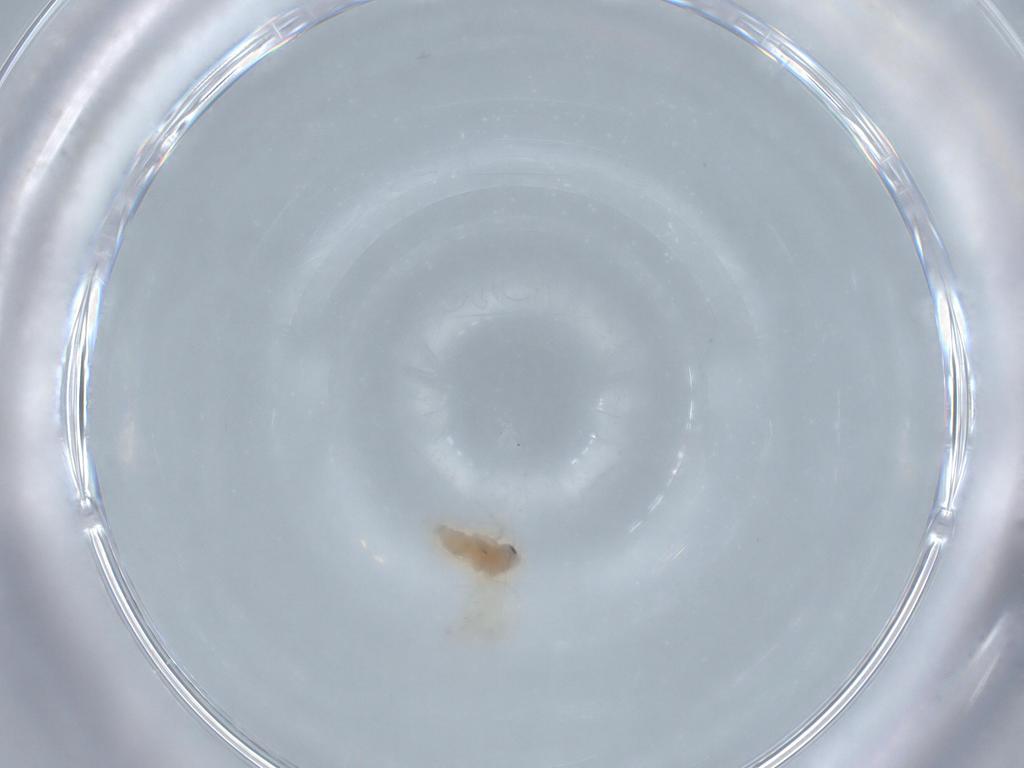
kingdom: Animalia
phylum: Arthropoda
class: Insecta
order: Hemiptera
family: Aleyrodidae
